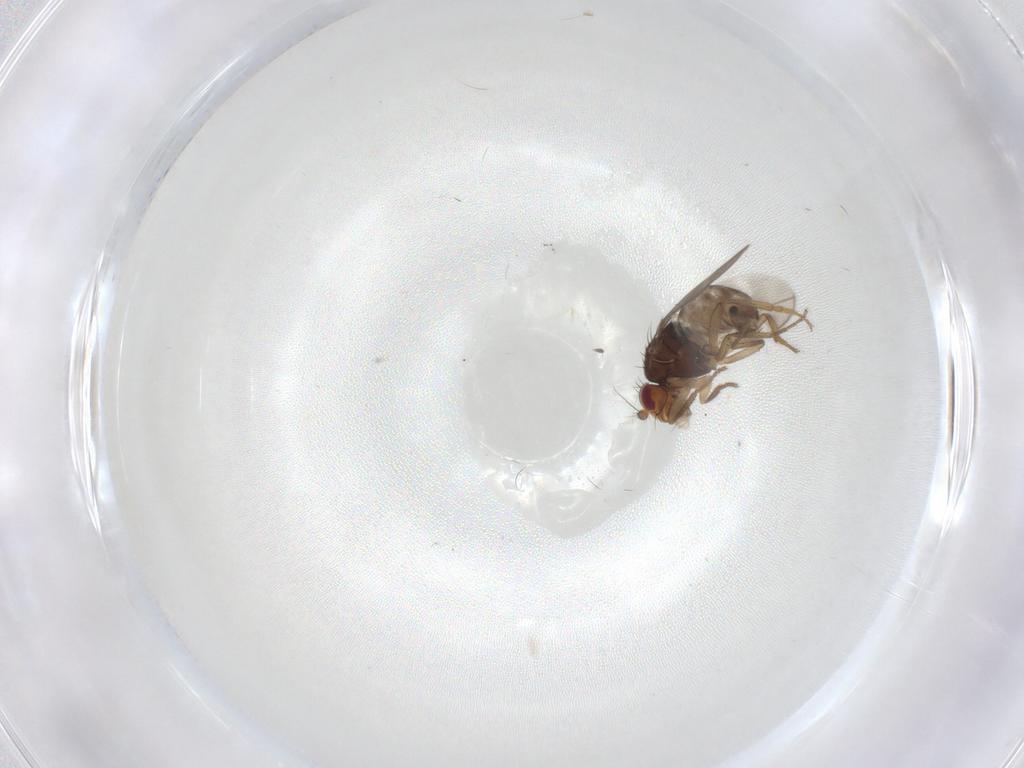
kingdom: Animalia
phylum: Arthropoda
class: Insecta
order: Diptera
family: Sphaeroceridae
